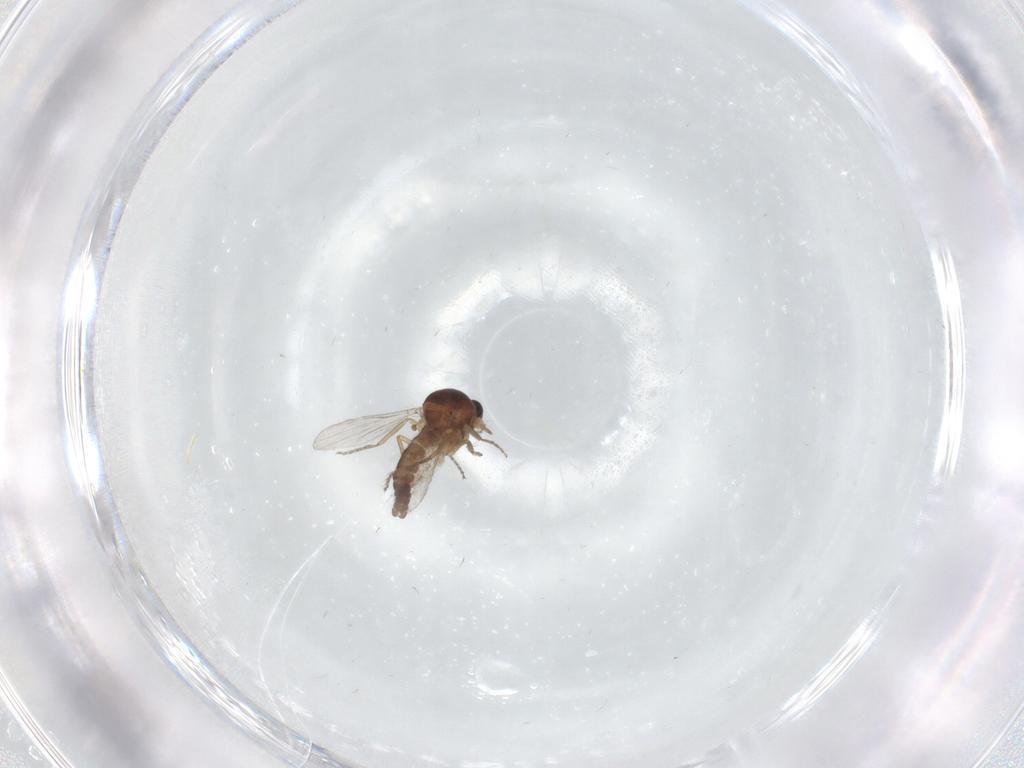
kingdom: Animalia
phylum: Arthropoda
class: Insecta
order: Diptera
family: Ceratopogonidae
